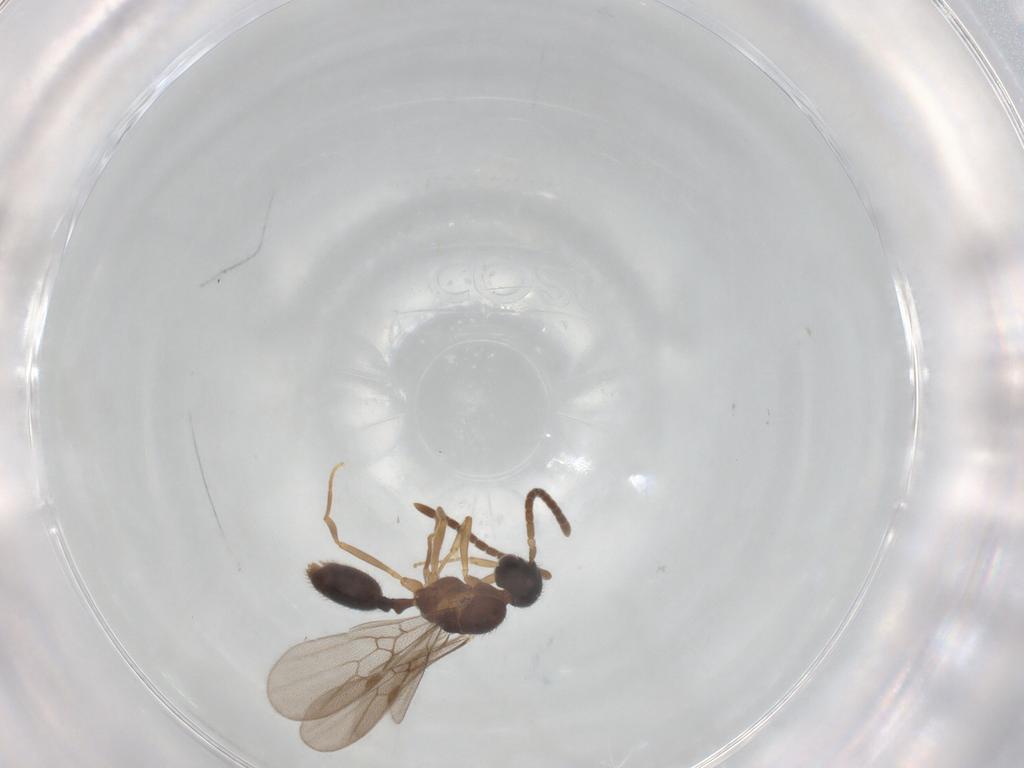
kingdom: Animalia
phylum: Arthropoda
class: Insecta
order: Hymenoptera
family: Formicidae
